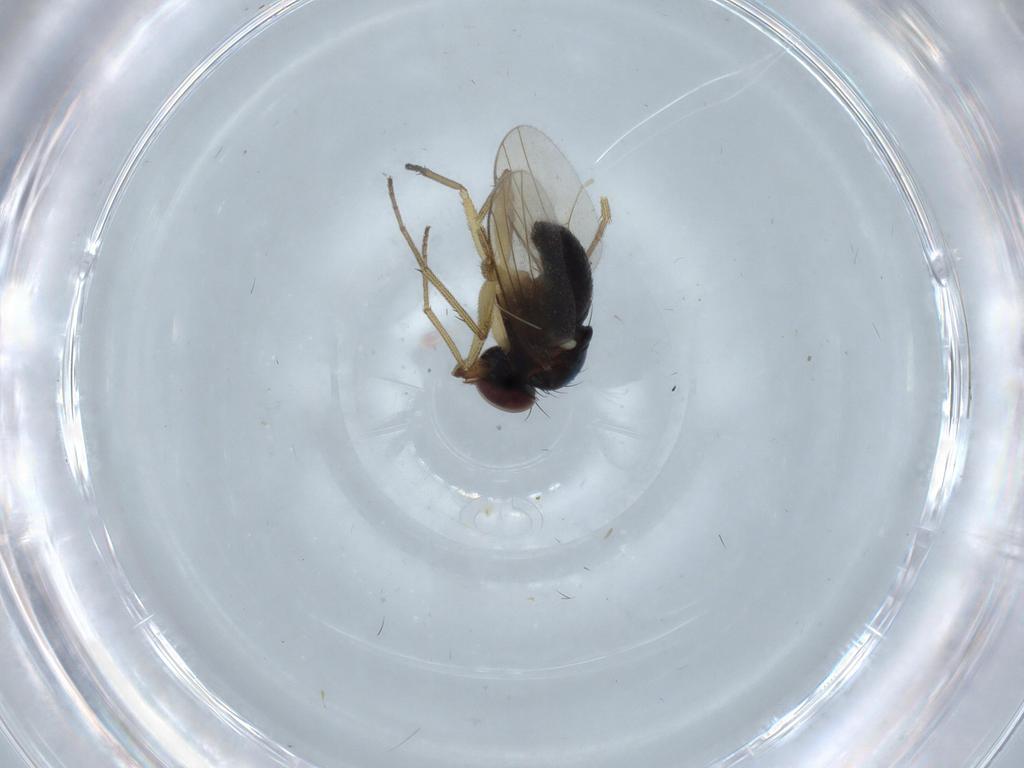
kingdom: Animalia
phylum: Arthropoda
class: Insecta
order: Diptera
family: Dolichopodidae
